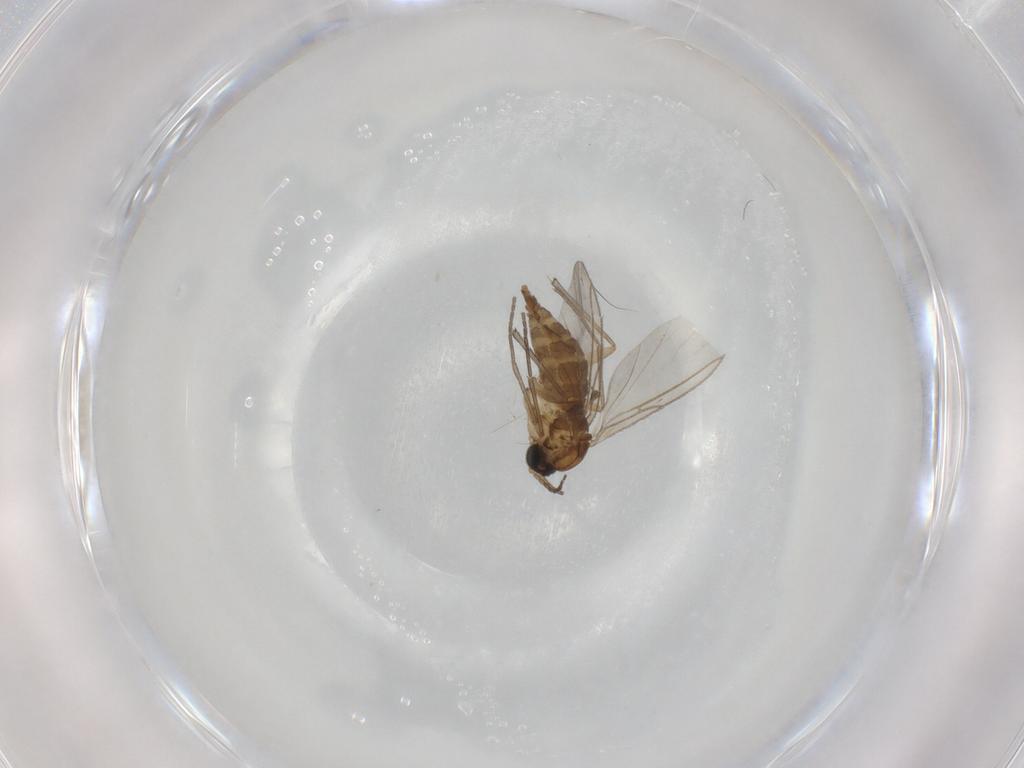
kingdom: Animalia
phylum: Arthropoda
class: Insecta
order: Diptera
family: Sciaridae
